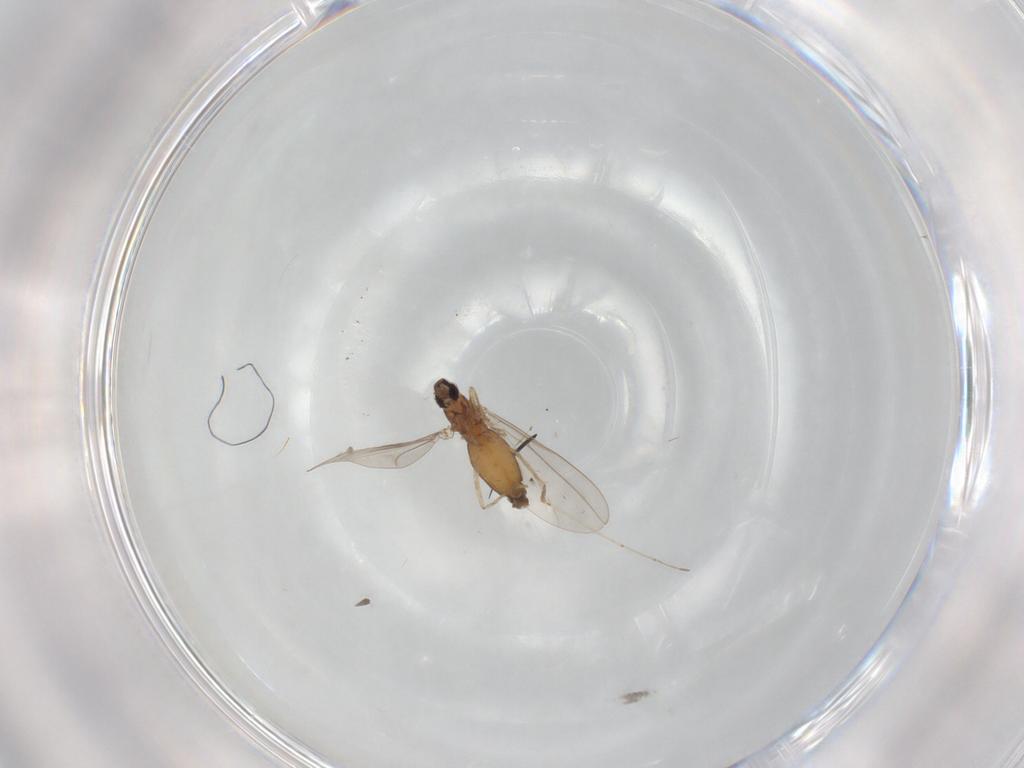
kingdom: Animalia
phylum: Arthropoda
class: Insecta
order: Diptera
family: Cecidomyiidae
